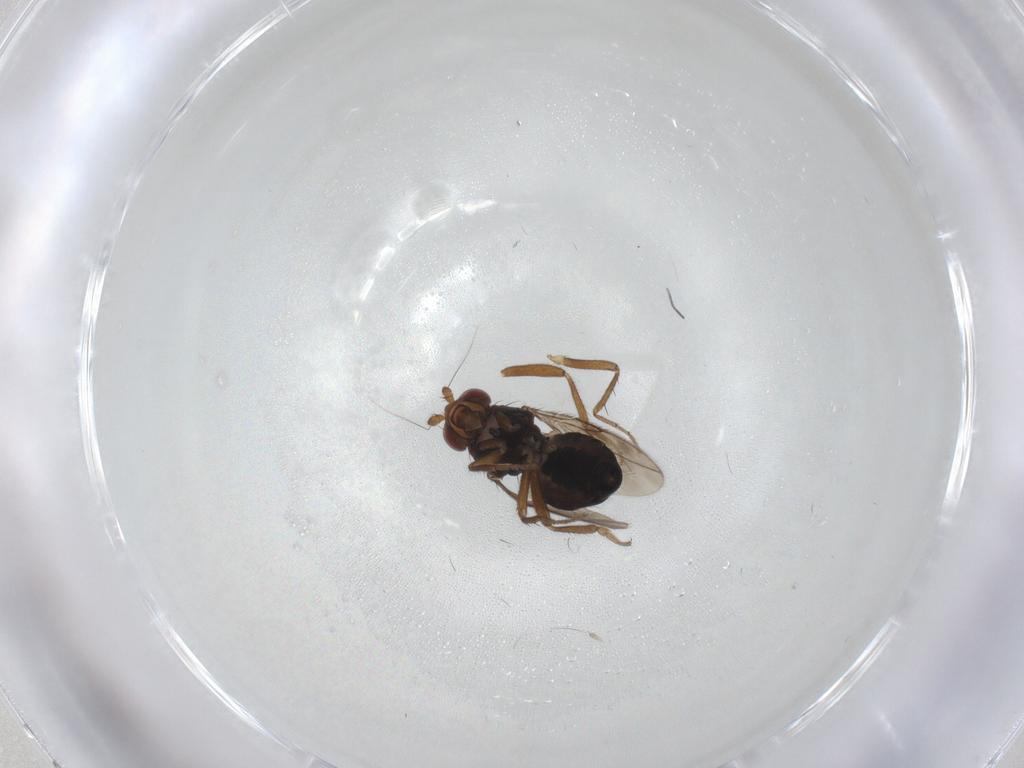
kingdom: Animalia
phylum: Arthropoda
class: Insecta
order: Diptera
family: Sphaeroceridae
